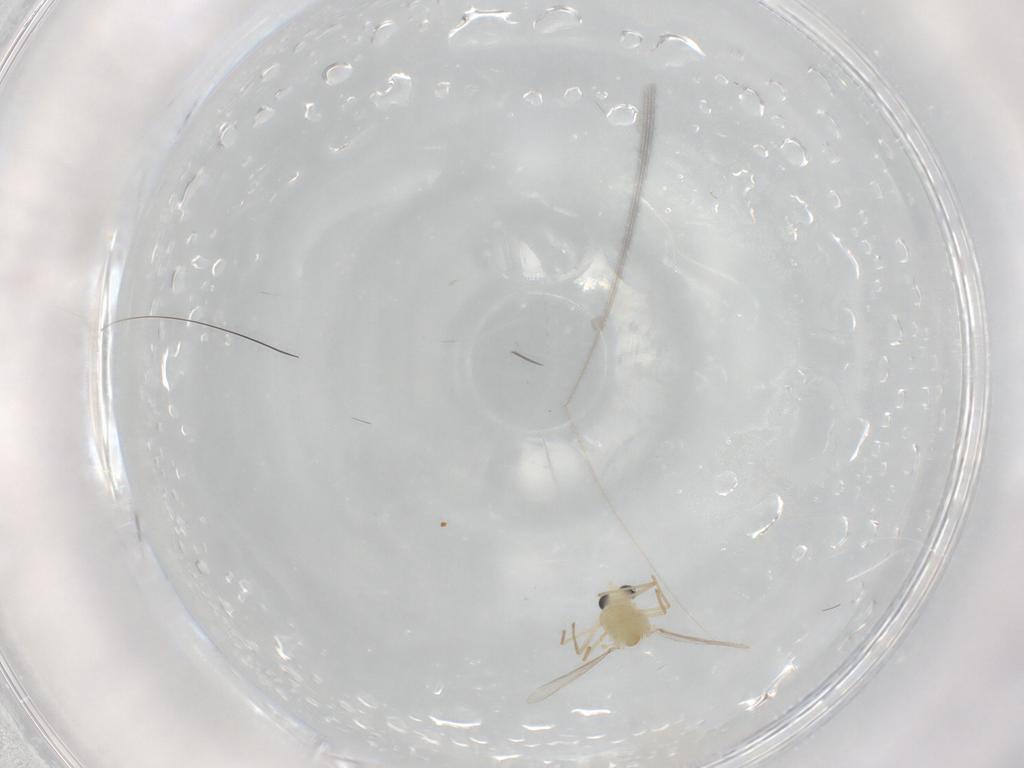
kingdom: Animalia
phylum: Arthropoda
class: Insecta
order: Diptera
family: Chironomidae
